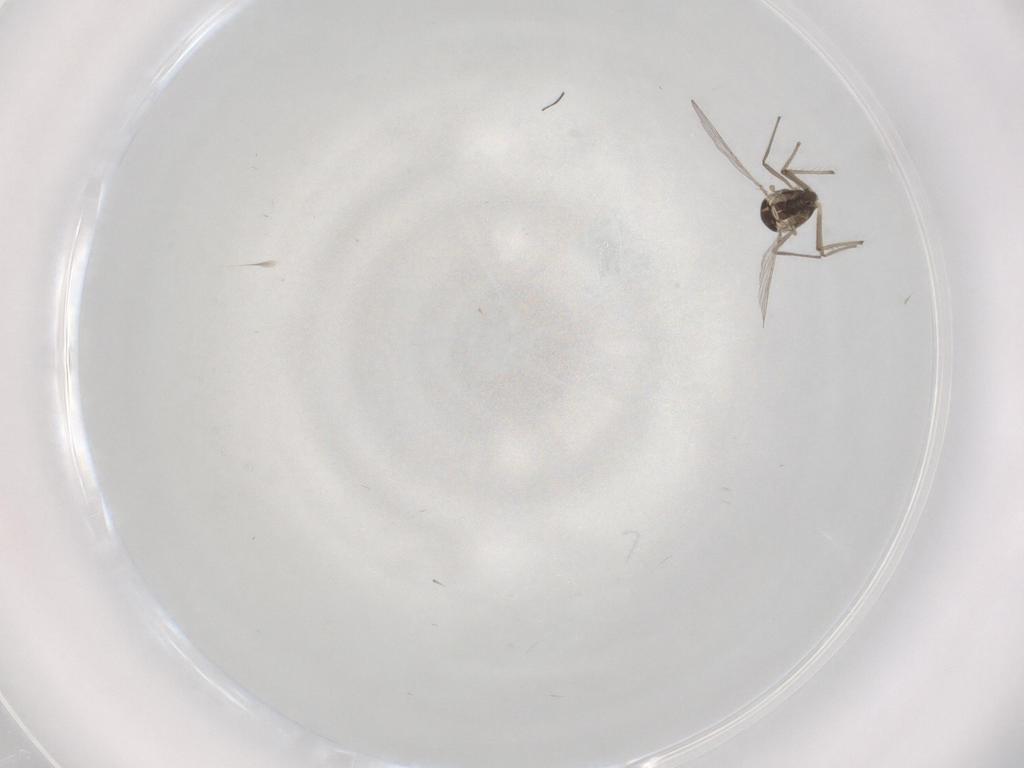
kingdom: Animalia
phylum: Arthropoda
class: Insecta
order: Diptera
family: Chironomidae
